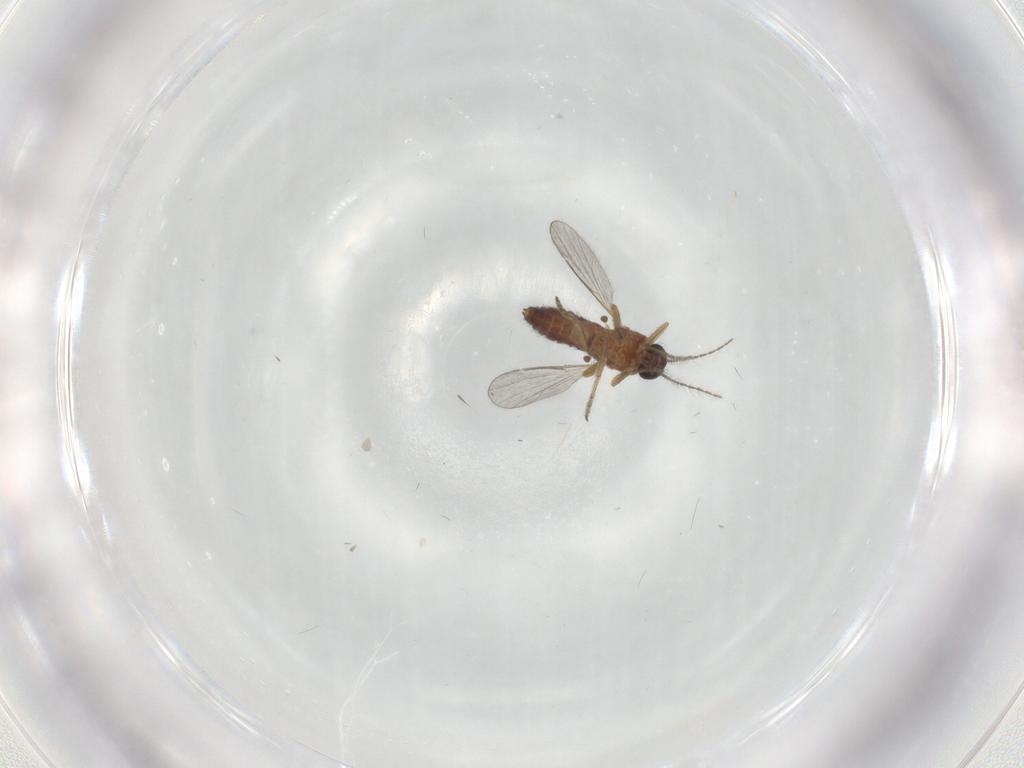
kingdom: Animalia
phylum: Arthropoda
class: Insecta
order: Diptera
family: Ceratopogonidae
